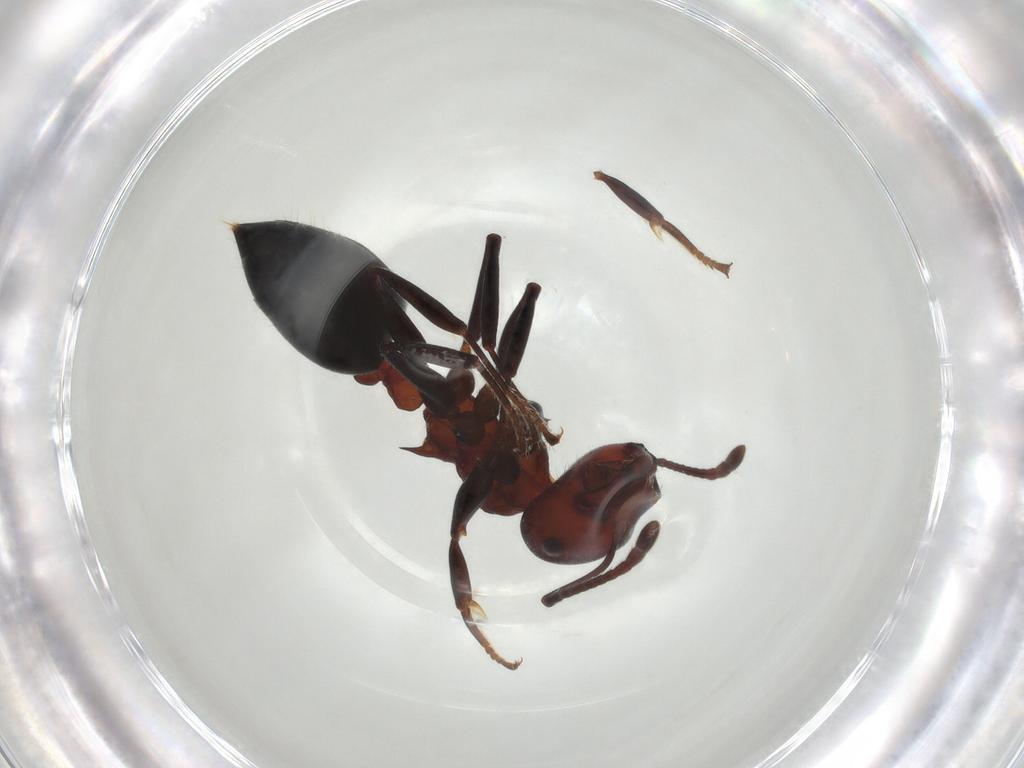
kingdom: Animalia
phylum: Arthropoda
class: Insecta
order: Hymenoptera
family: Formicidae
